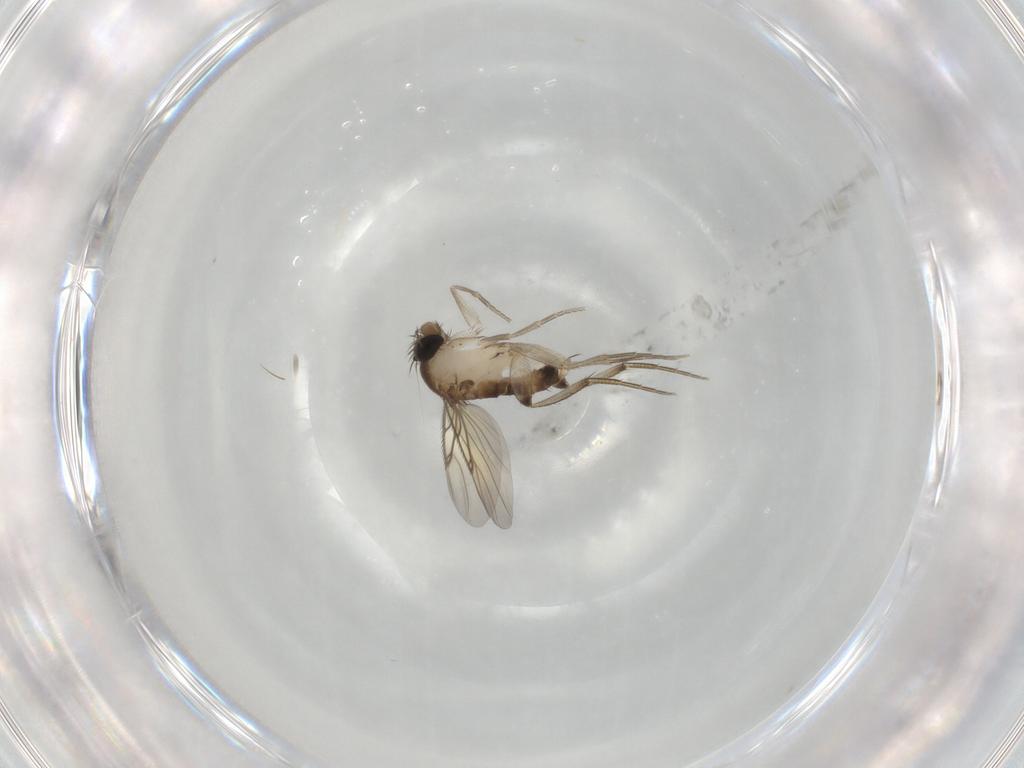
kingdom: Animalia
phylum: Arthropoda
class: Insecta
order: Diptera
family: Phoridae
